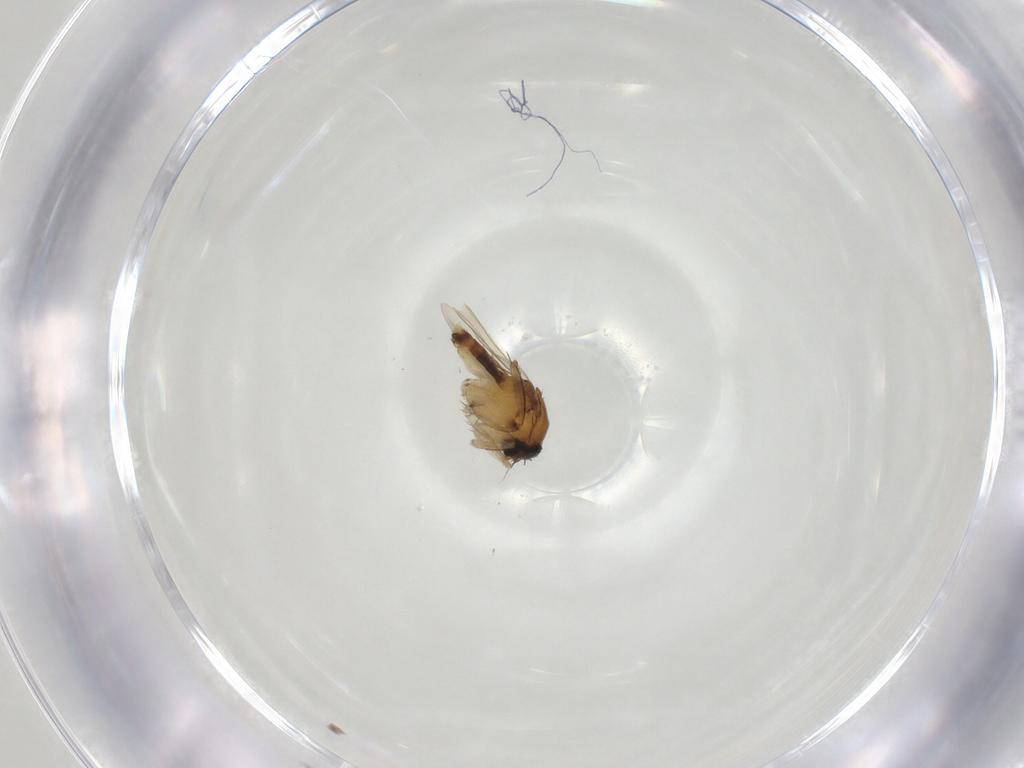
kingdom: Animalia
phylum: Arthropoda
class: Insecta
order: Diptera
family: Phoridae
